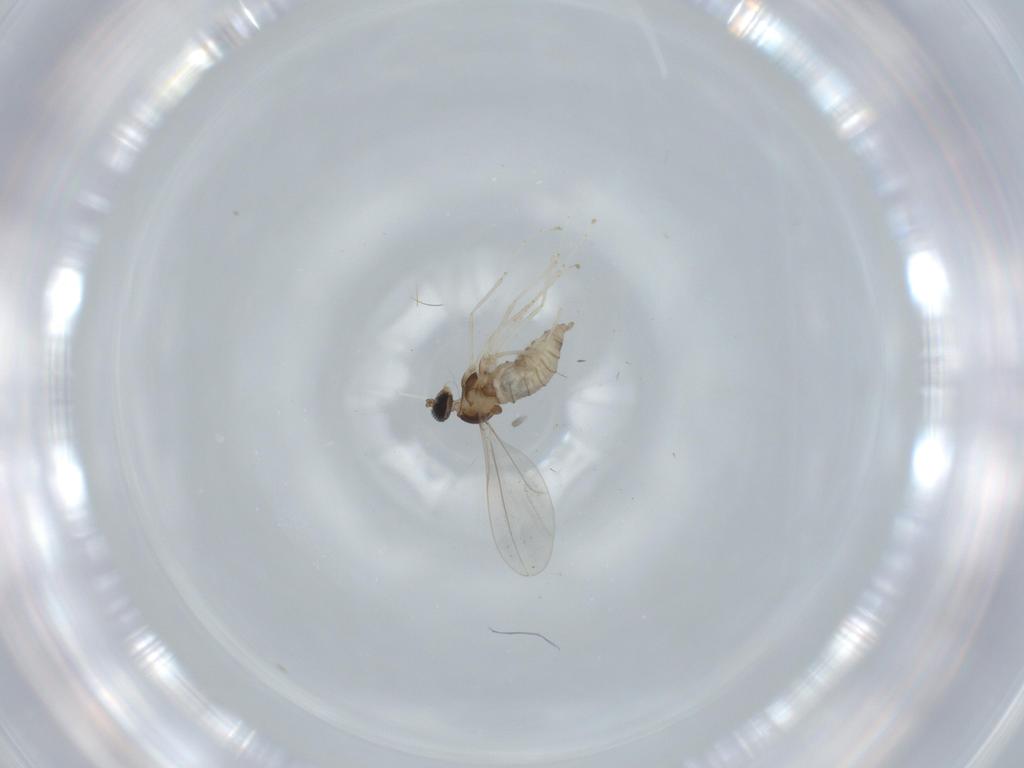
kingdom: Animalia
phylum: Arthropoda
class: Insecta
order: Diptera
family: Cecidomyiidae
